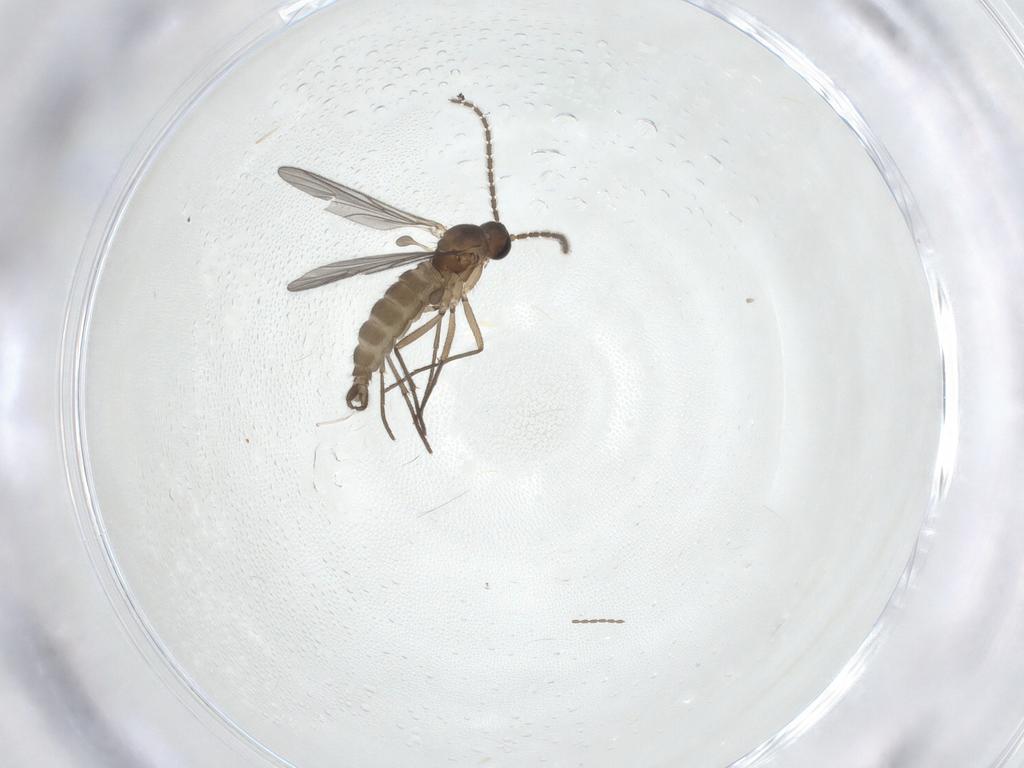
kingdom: Animalia
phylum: Arthropoda
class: Insecta
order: Diptera
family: Sciaridae
